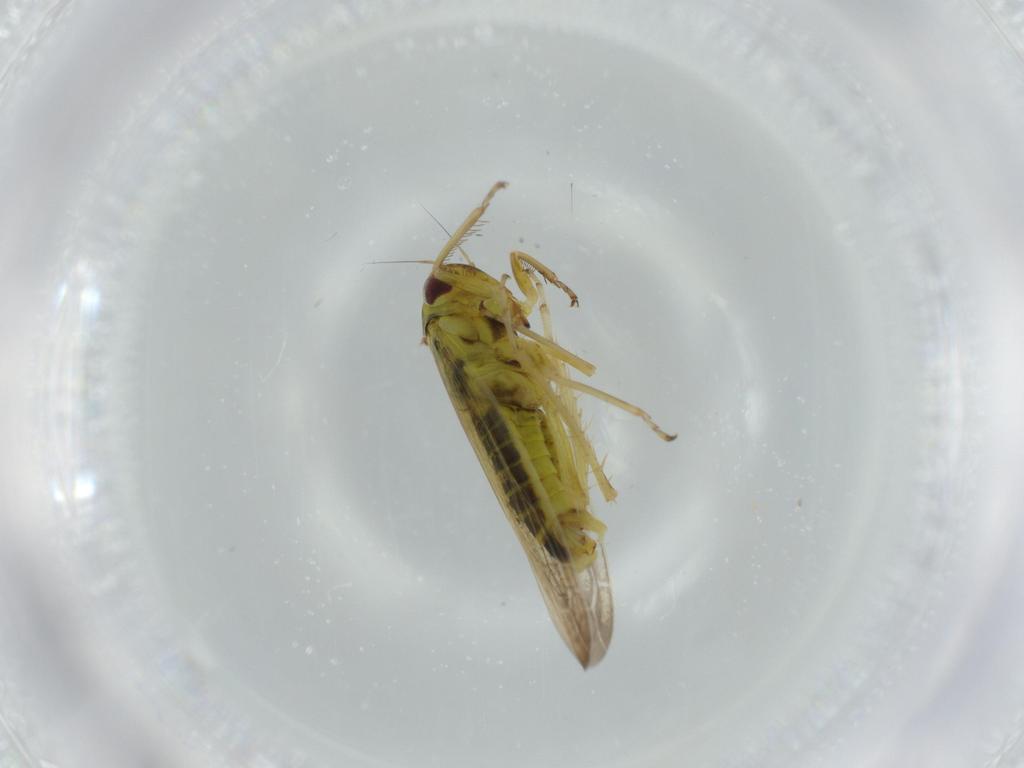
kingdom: Animalia
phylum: Arthropoda
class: Insecta
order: Hemiptera
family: Cicadellidae
